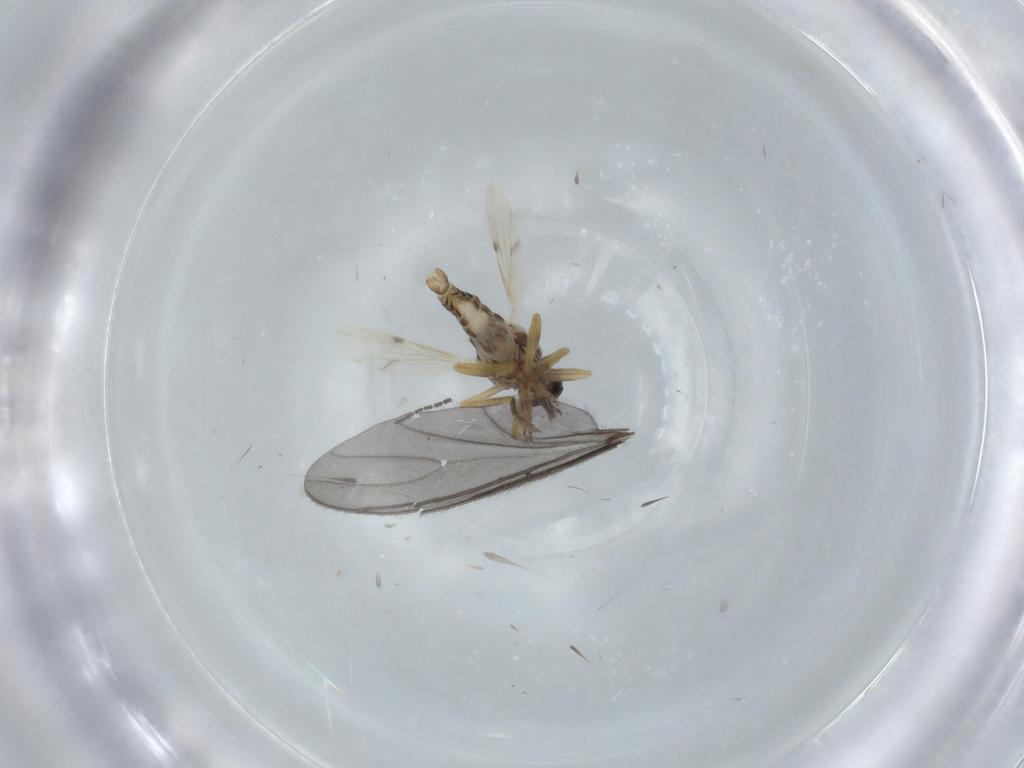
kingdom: Animalia
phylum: Arthropoda
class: Insecta
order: Diptera
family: Ceratopogonidae
